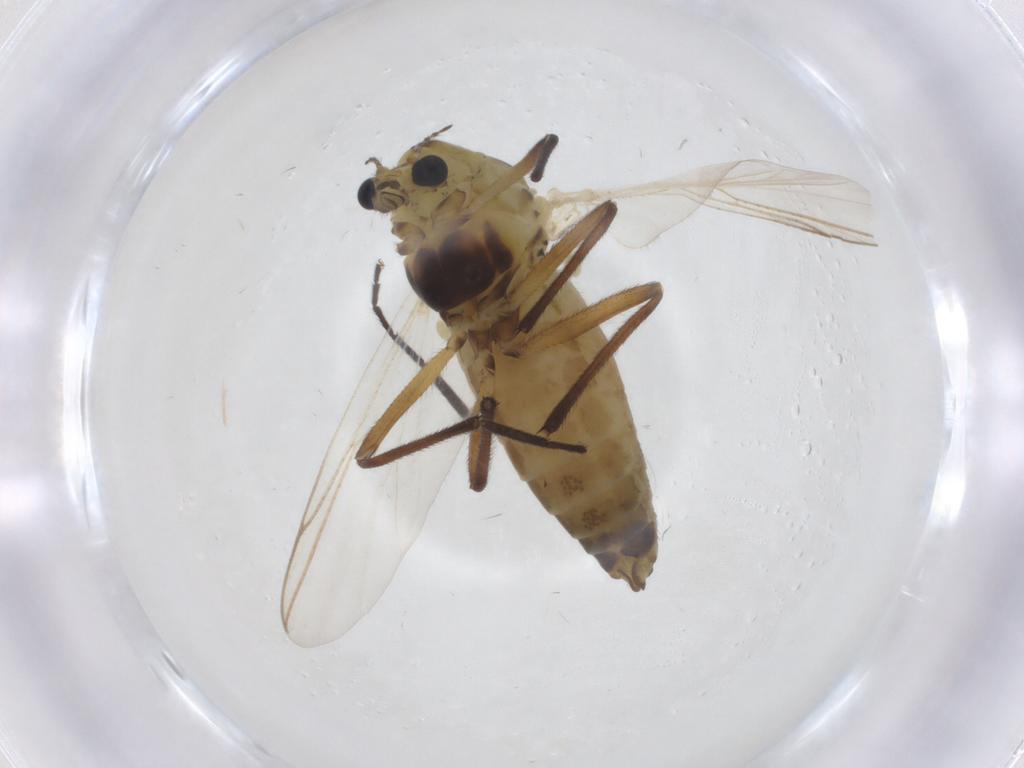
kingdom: Animalia
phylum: Arthropoda
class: Insecta
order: Diptera
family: Chironomidae
